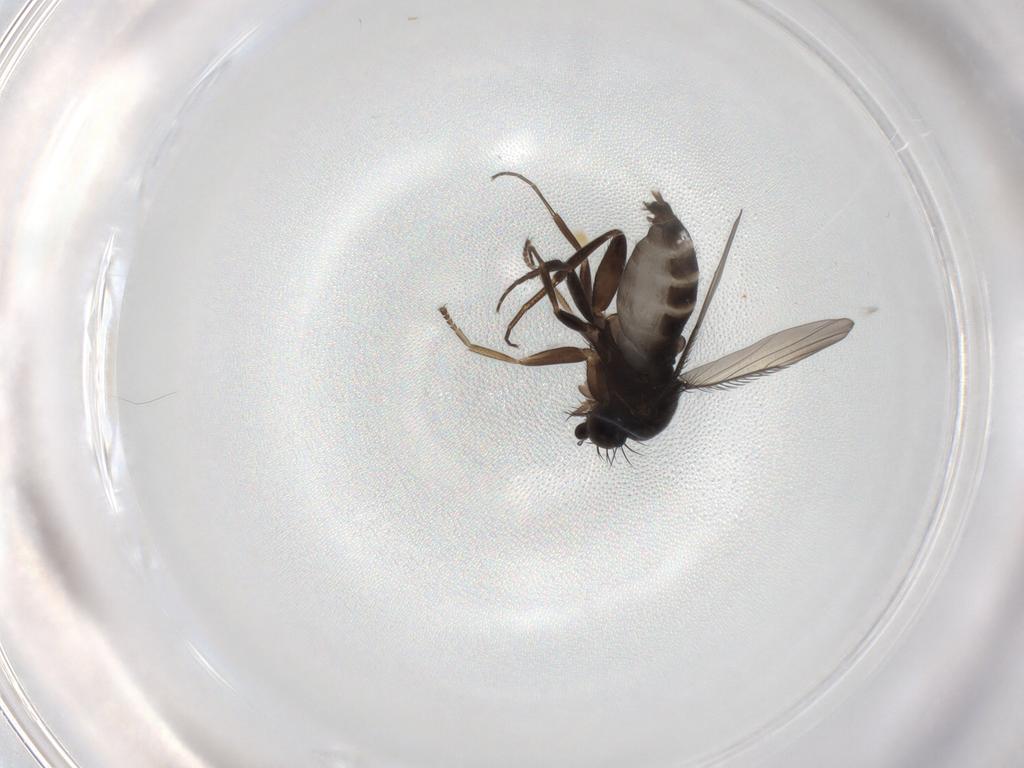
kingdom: Animalia
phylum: Arthropoda
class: Insecta
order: Diptera
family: Phoridae
